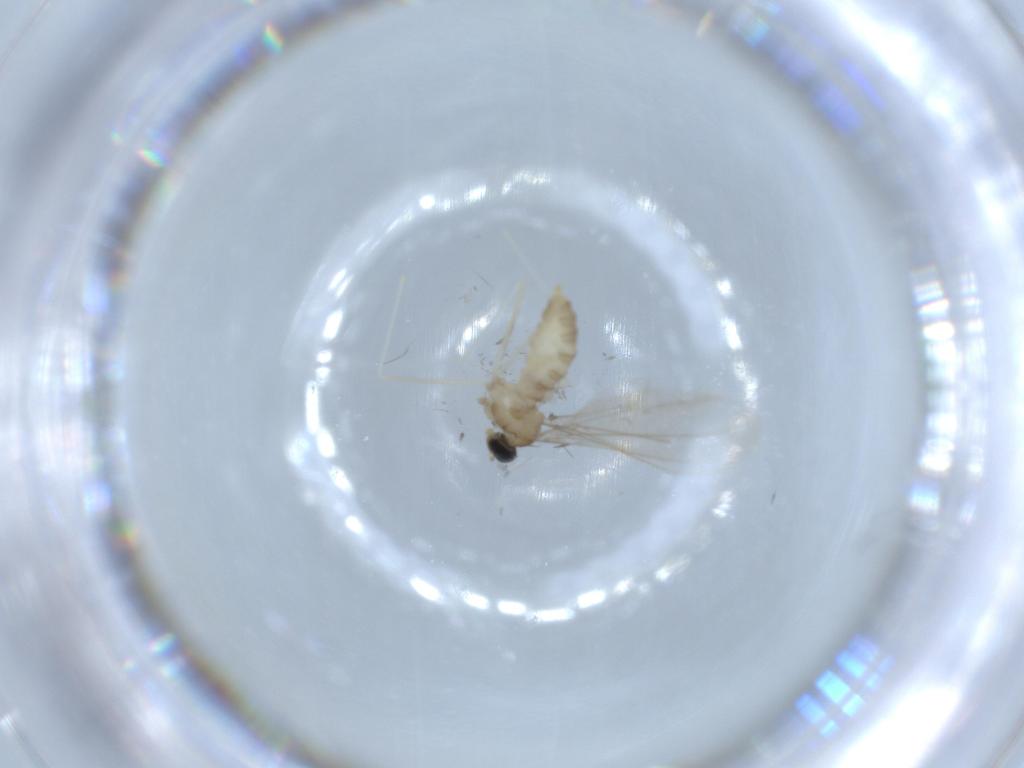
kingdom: Animalia
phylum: Arthropoda
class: Insecta
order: Diptera
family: Cecidomyiidae
